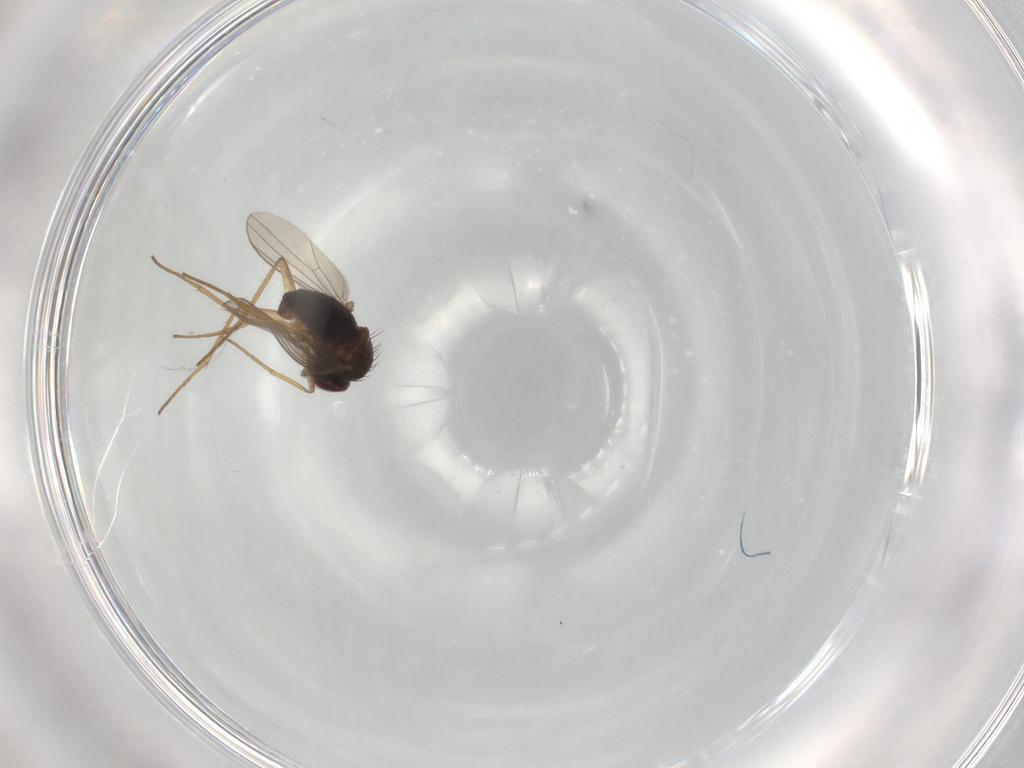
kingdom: Animalia
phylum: Arthropoda
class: Insecta
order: Diptera
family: Dolichopodidae
